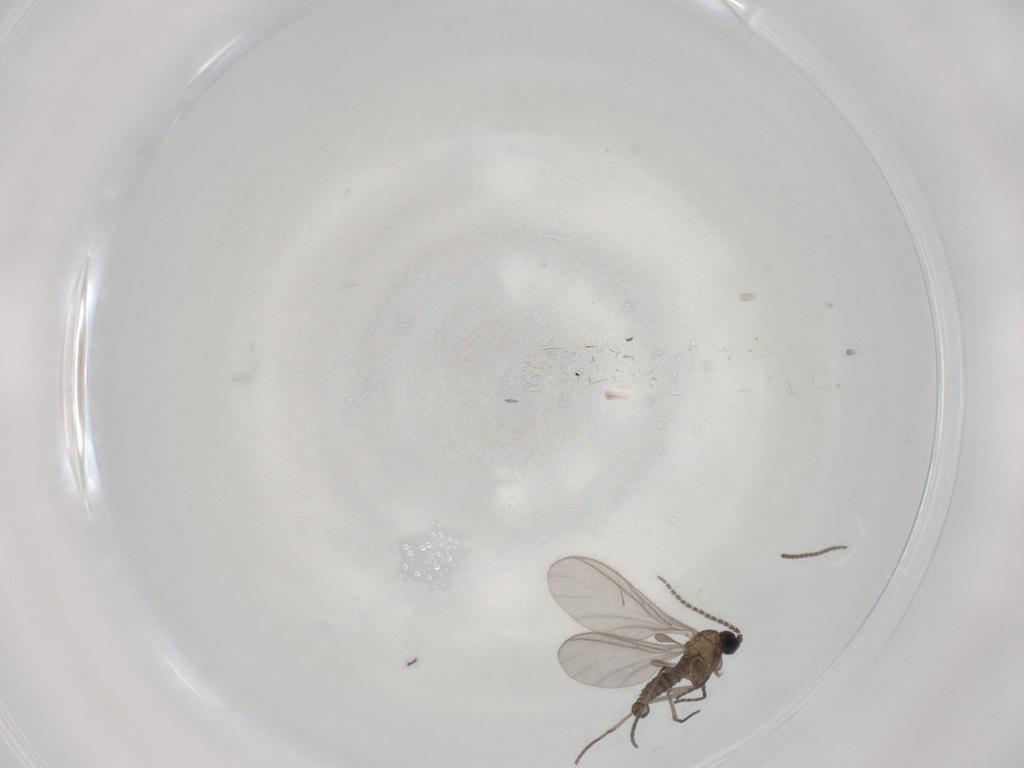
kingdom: Animalia
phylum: Arthropoda
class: Insecta
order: Diptera
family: Sciaridae
